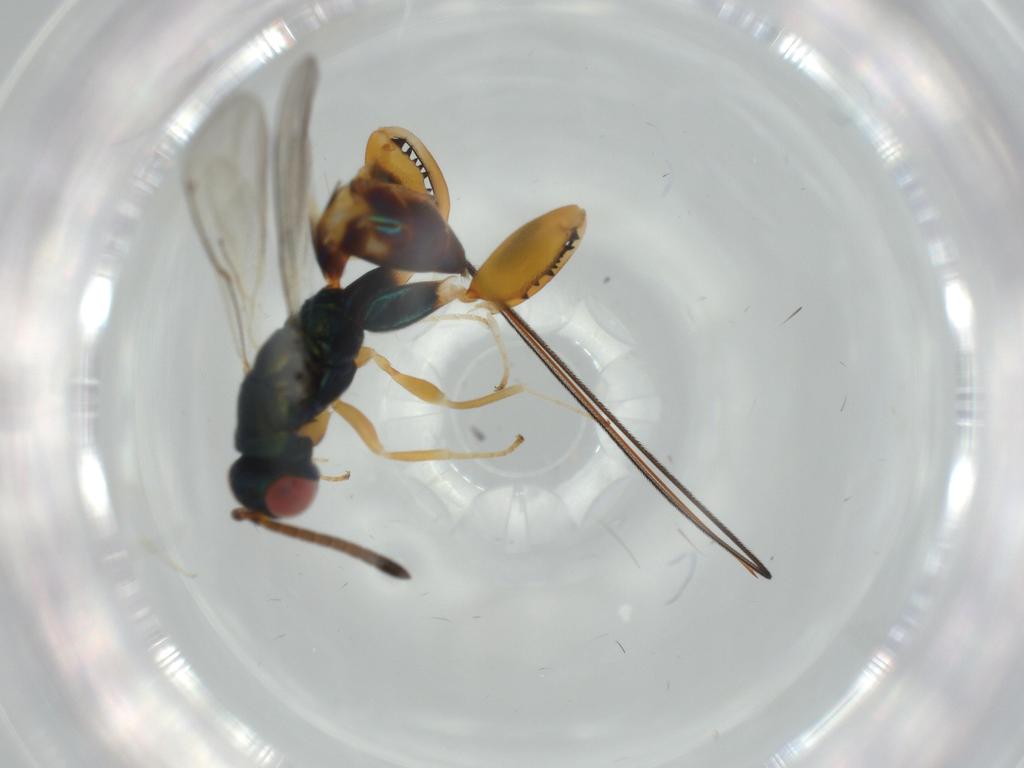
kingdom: Animalia
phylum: Arthropoda
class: Insecta
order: Hymenoptera
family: Torymidae
